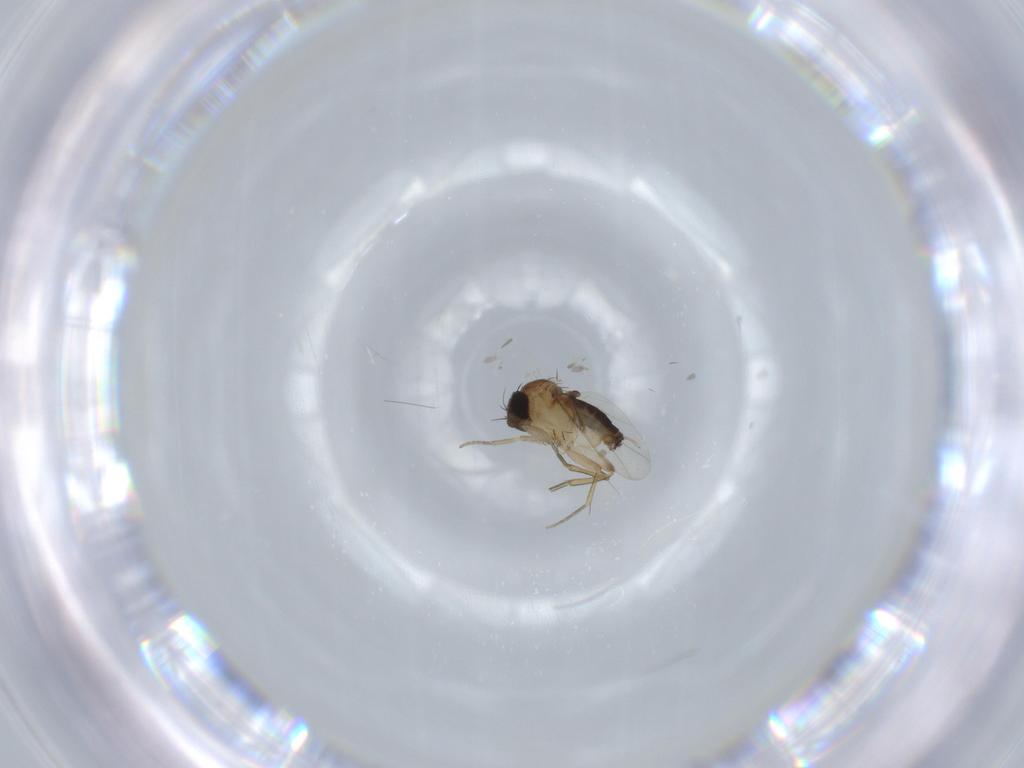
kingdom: Animalia
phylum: Arthropoda
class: Insecta
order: Diptera
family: Phoridae
